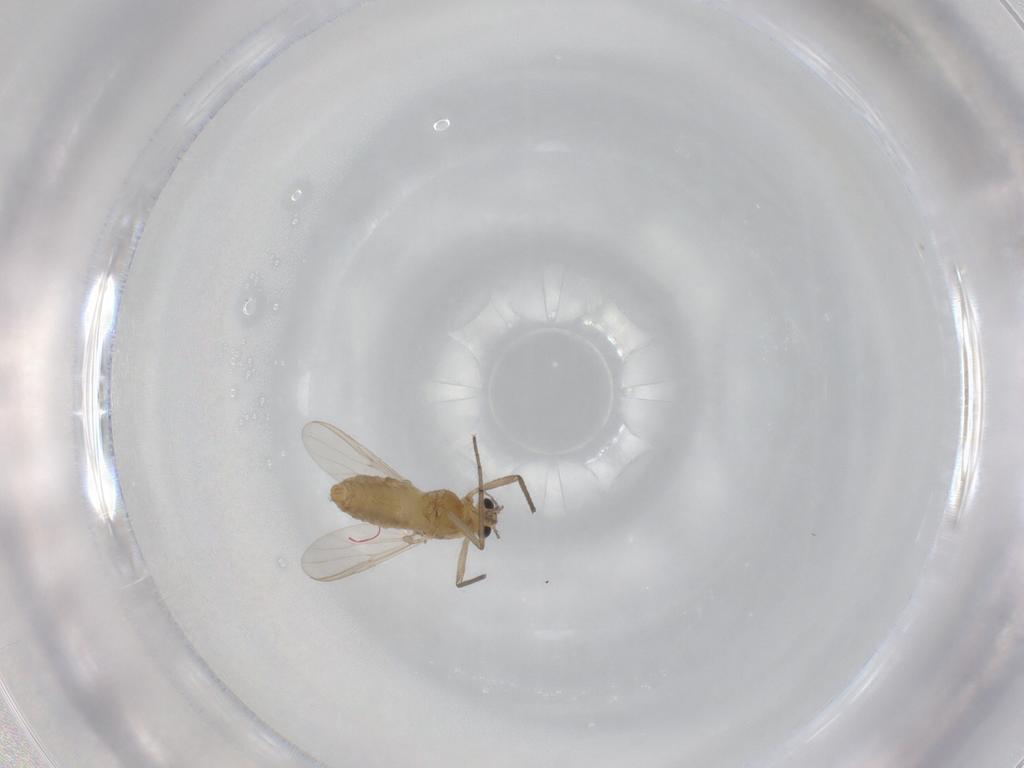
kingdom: Animalia
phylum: Arthropoda
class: Insecta
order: Diptera
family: Chironomidae
